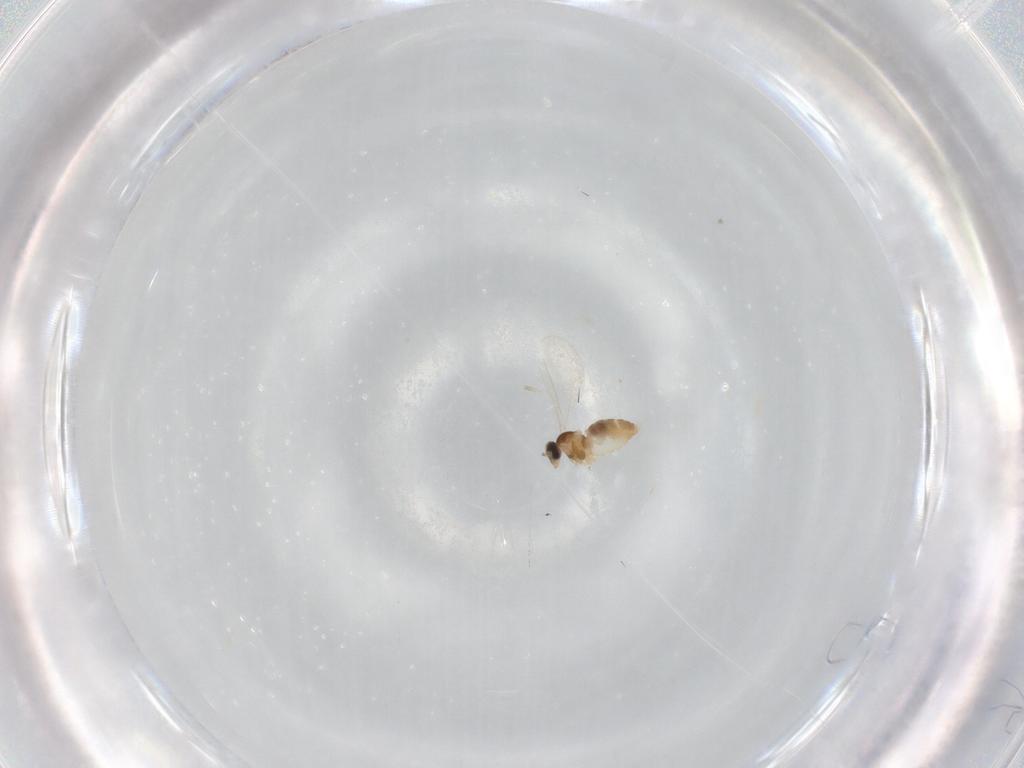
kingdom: Animalia
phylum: Arthropoda
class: Insecta
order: Diptera
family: Cecidomyiidae
